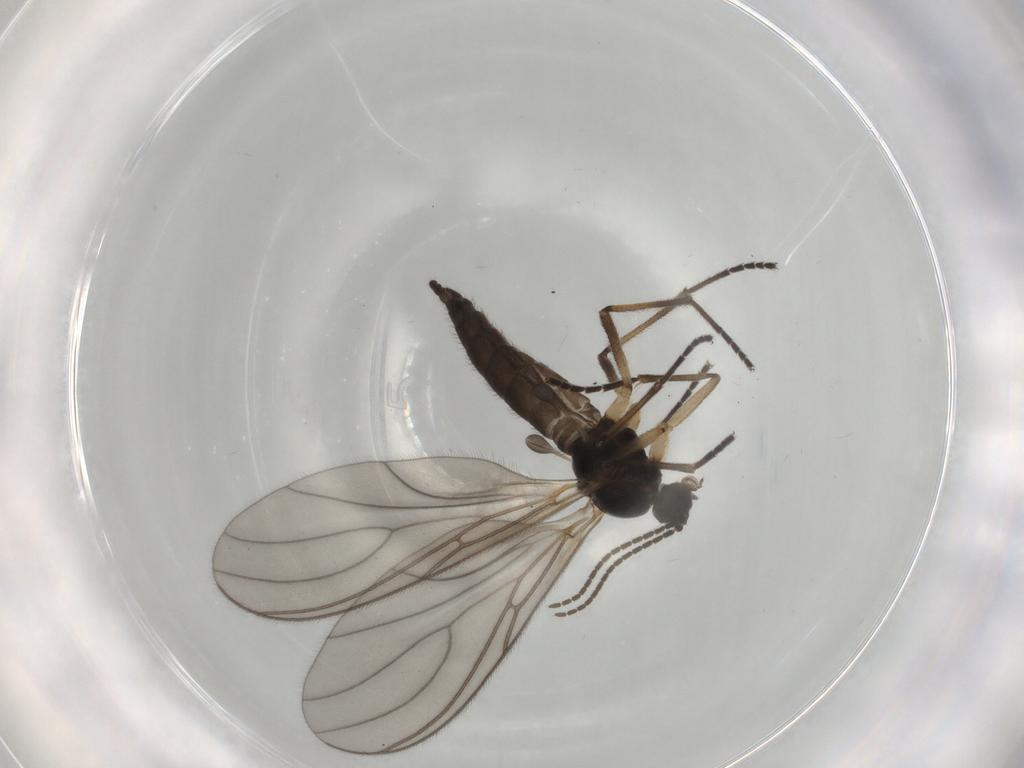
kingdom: Animalia
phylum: Arthropoda
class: Insecta
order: Diptera
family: Sciaridae
